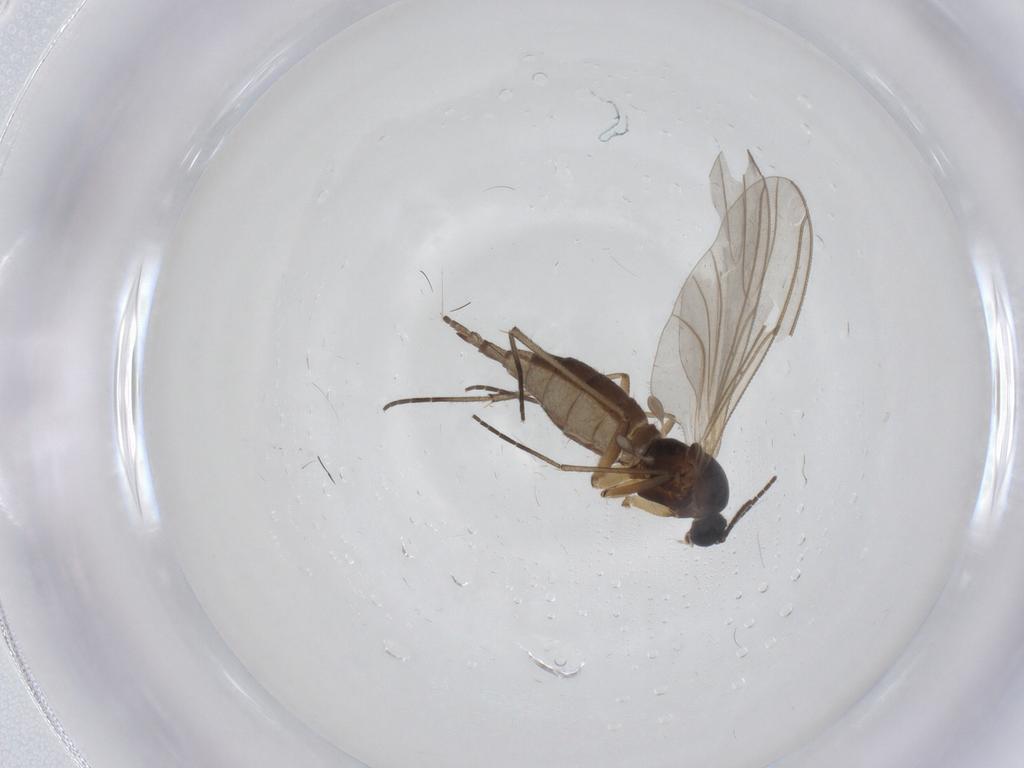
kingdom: Animalia
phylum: Arthropoda
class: Insecta
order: Diptera
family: Sciaridae
